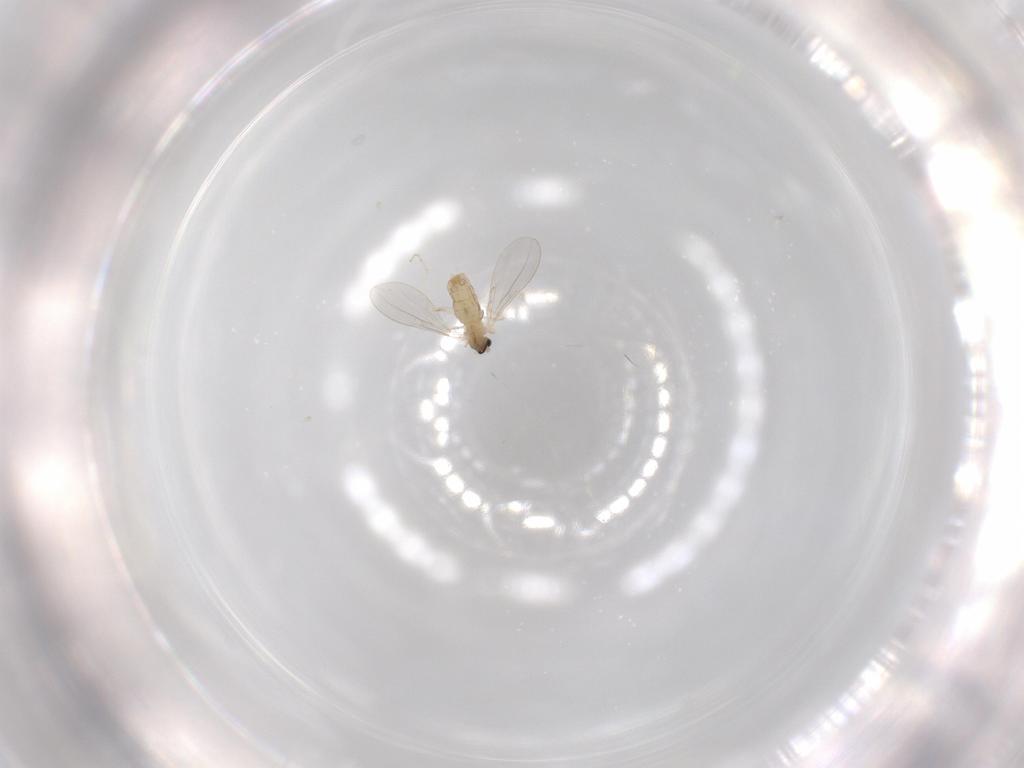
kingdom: Animalia
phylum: Arthropoda
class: Insecta
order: Diptera
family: Cecidomyiidae
